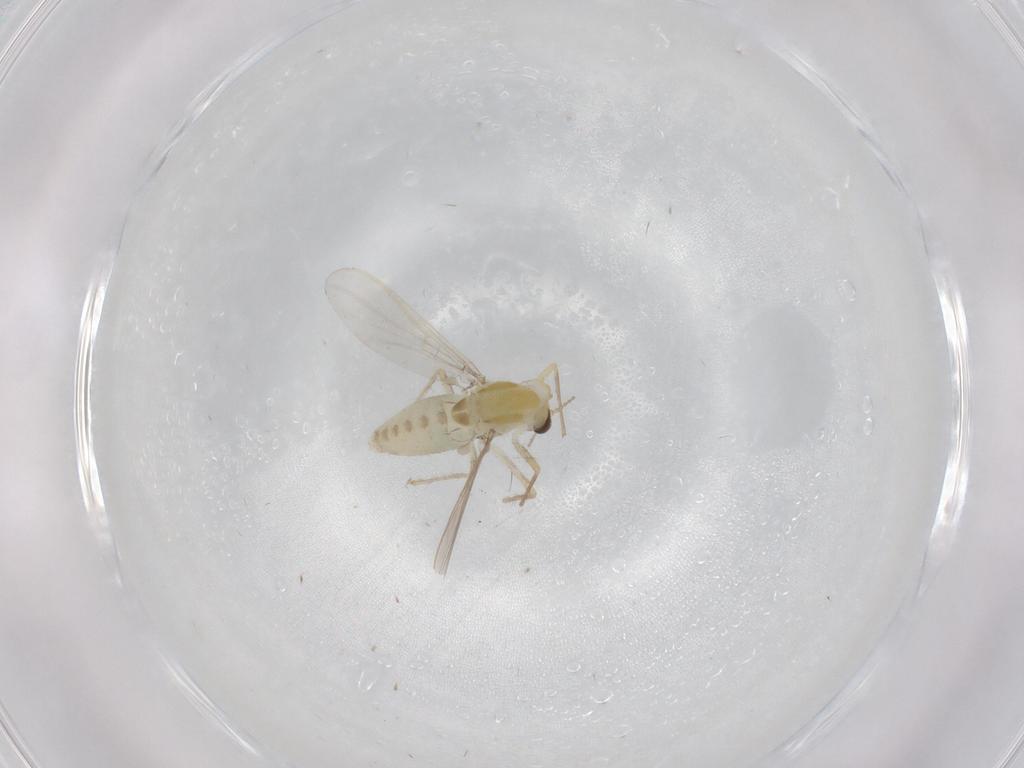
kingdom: Animalia
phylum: Arthropoda
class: Insecta
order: Diptera
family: Chironomidae
